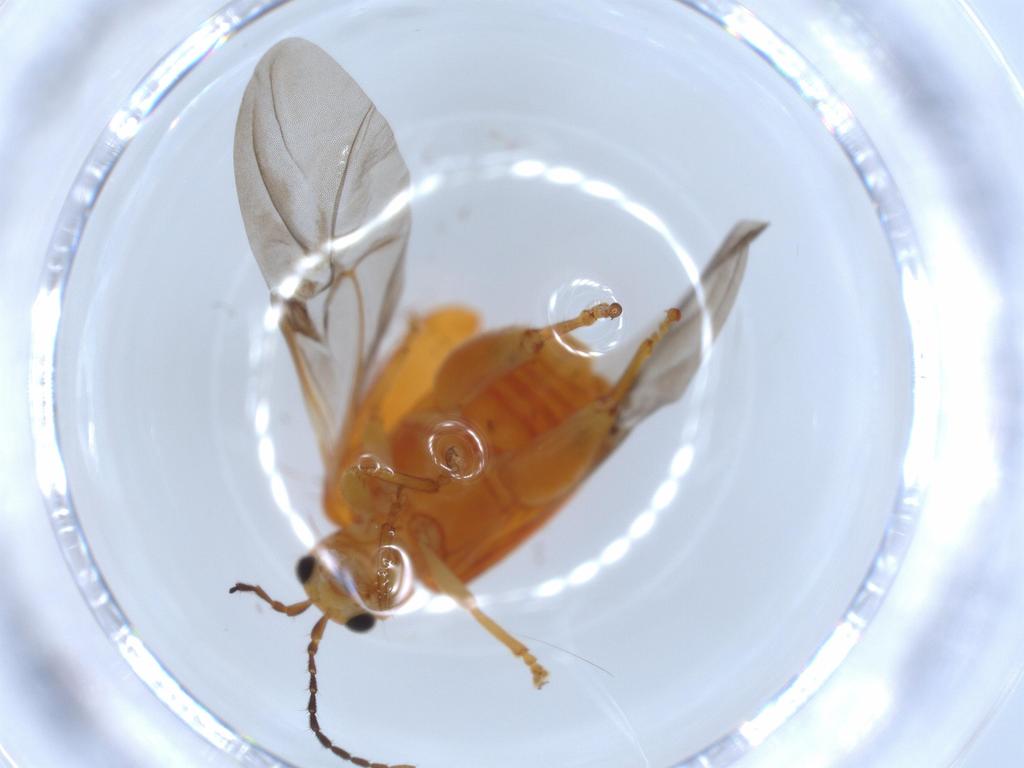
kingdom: Animalia
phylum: Arthropoda
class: Insecta
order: Coleoptera
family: Chrysomelidae
